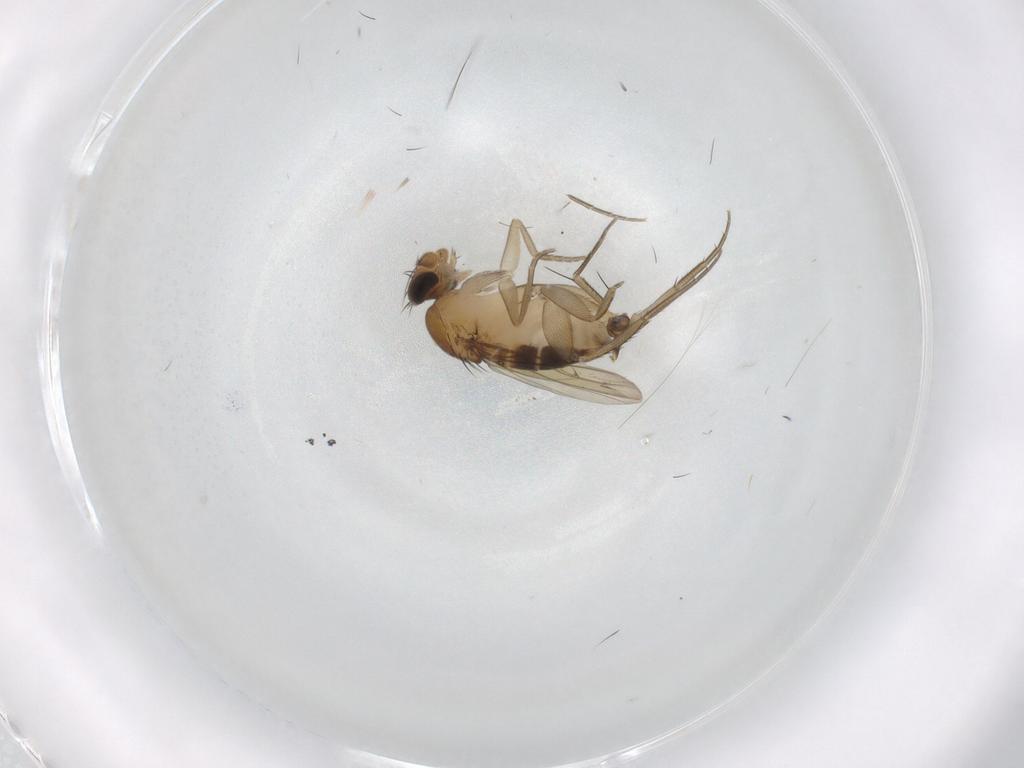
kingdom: Animalia
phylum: Arthropoda
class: Insecta
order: Diptera
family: Phoridae
